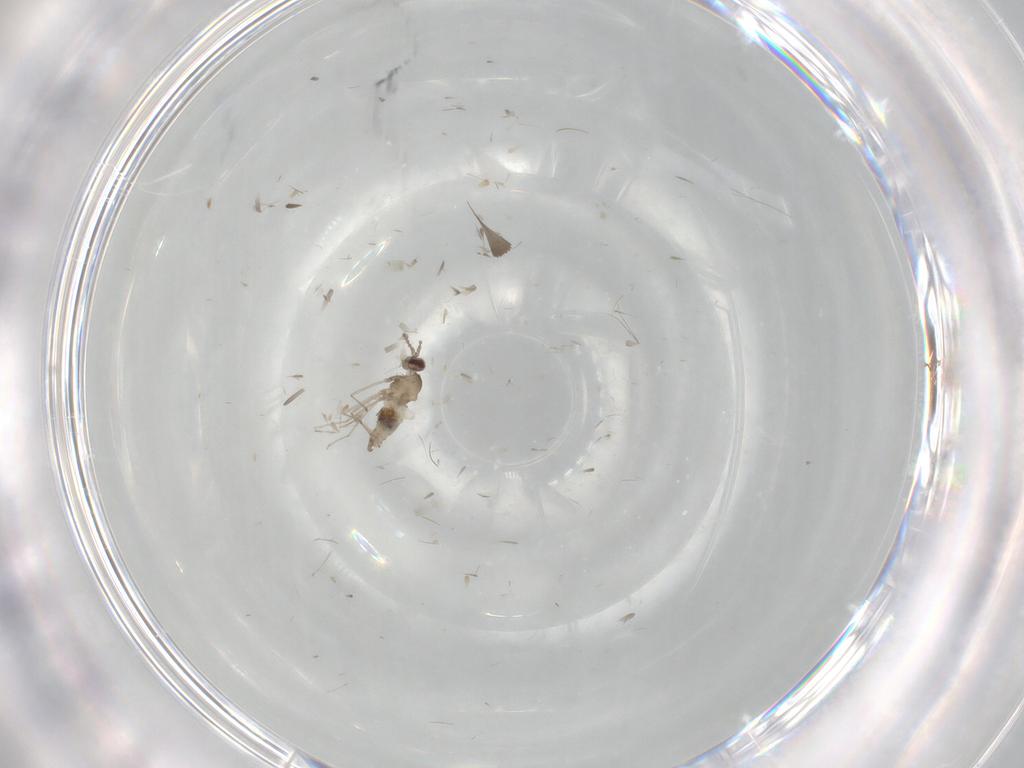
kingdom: Animalia
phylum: Arthropoda
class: Insecta
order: Diptera
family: Cecidomyiidae
